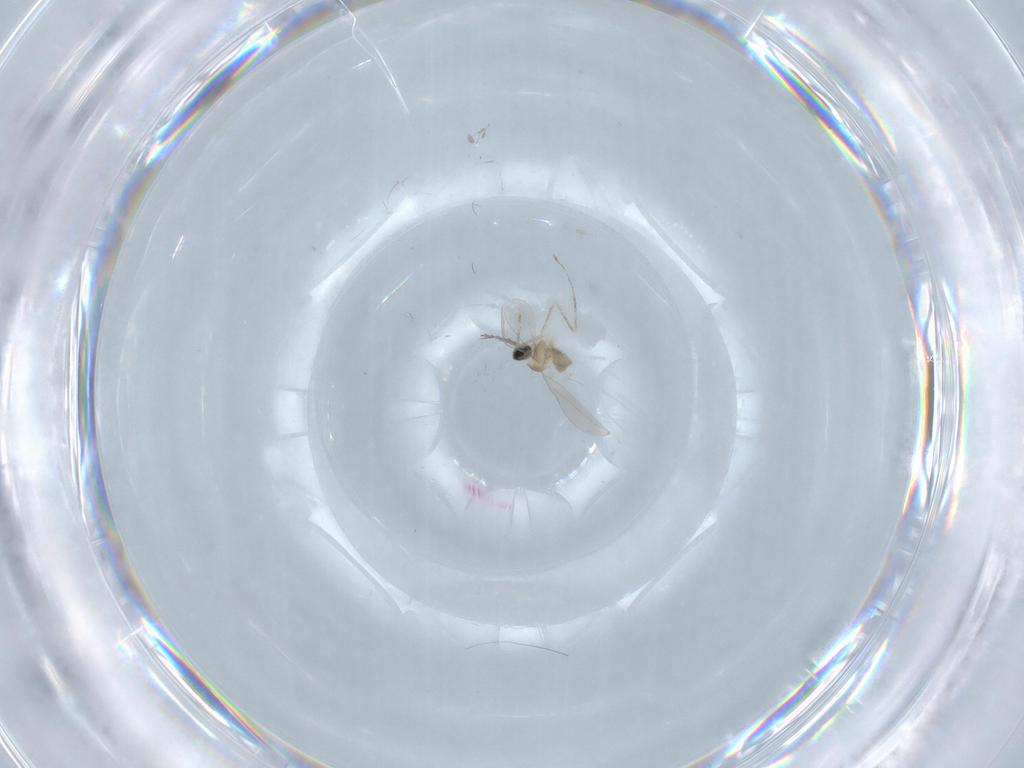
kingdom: Animalia
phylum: Arthropoda
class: Insecta
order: Diptera
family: Cecidomyiidae
